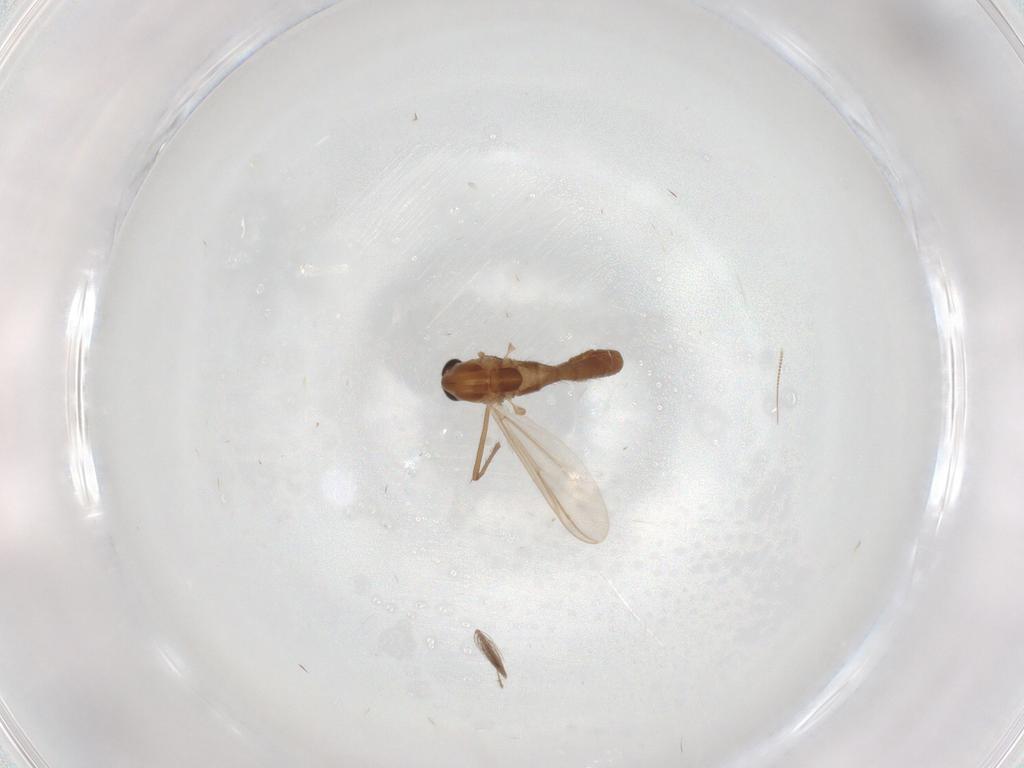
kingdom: Animalia
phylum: Arthropoda
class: Insecta
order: Diptera
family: Chironomidae
